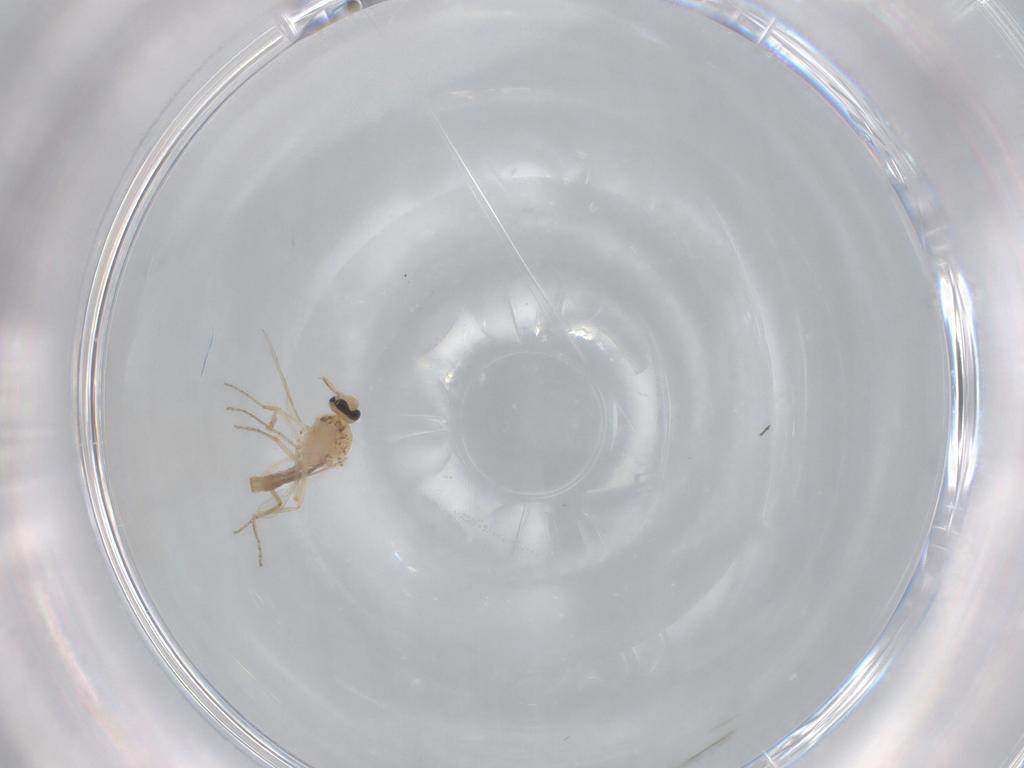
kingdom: Animalia
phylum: Arthropoda
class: Insecta
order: Diptera
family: Ceratopogonidae
